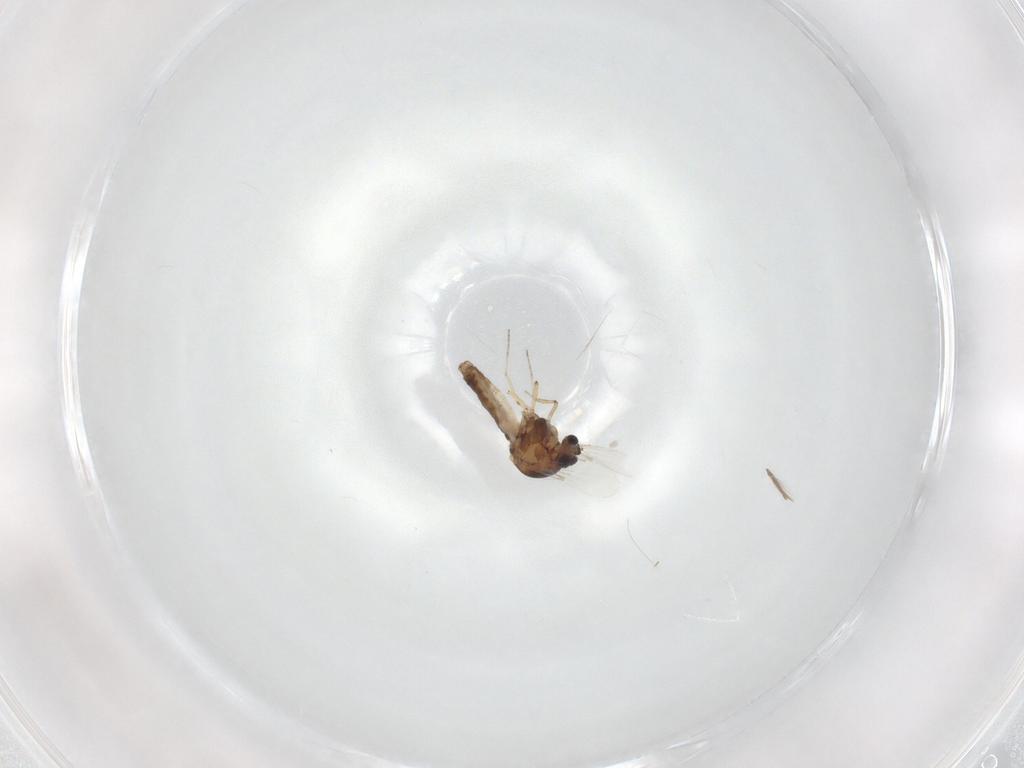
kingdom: Animalia
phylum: Arthropoda
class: Insecta
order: Diptera
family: Ceratopogonidae
